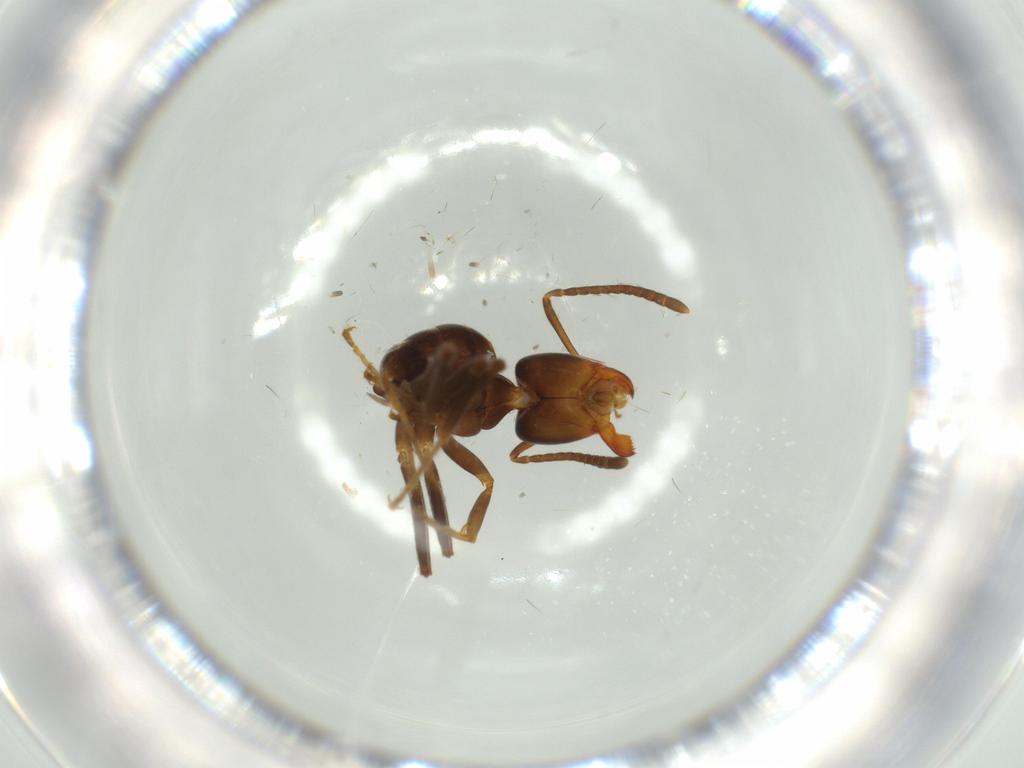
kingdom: Animalia
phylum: Arthropoda
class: Insecta
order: Hymenoptera
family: Formicidae
